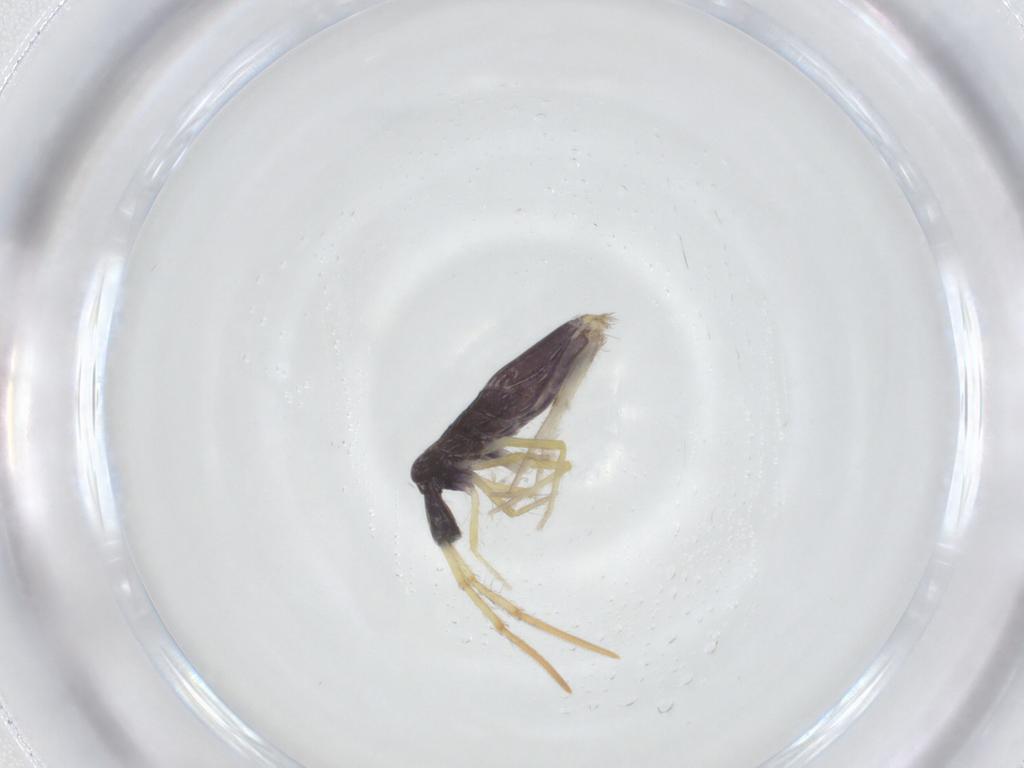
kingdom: Animalia
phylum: Arthropoda
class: Collembola
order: Entomobryomorpha
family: Entomobryidae
